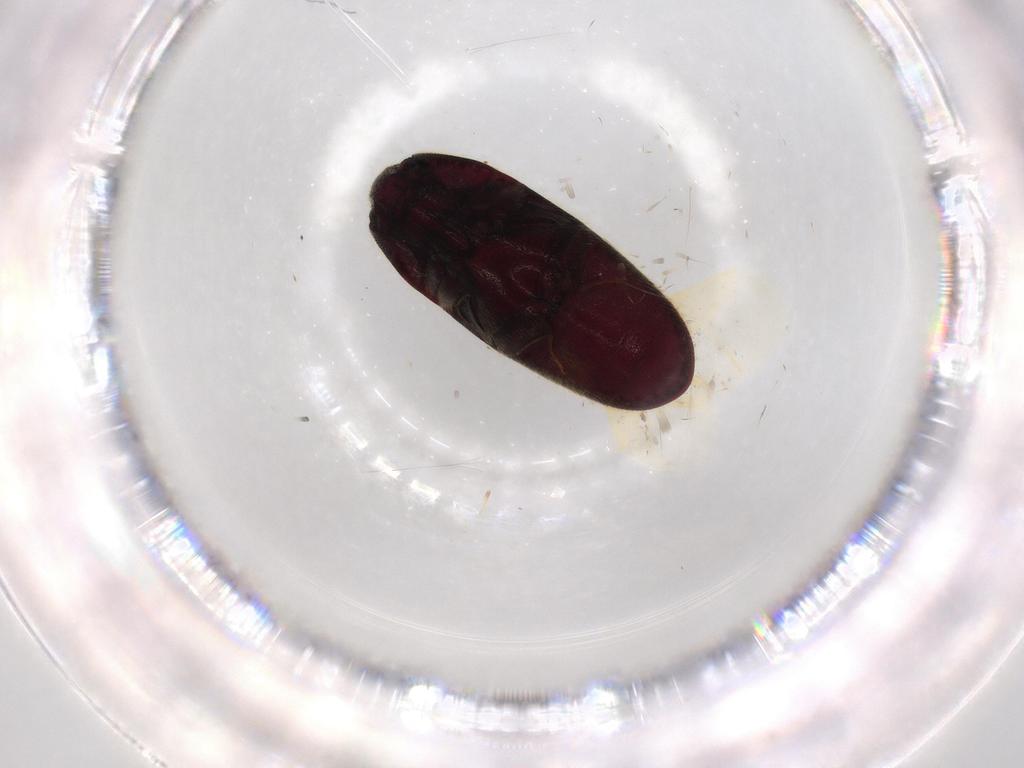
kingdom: Animalia
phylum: Arthropoda
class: Insecta
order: Coleoptera
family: Throscidae
